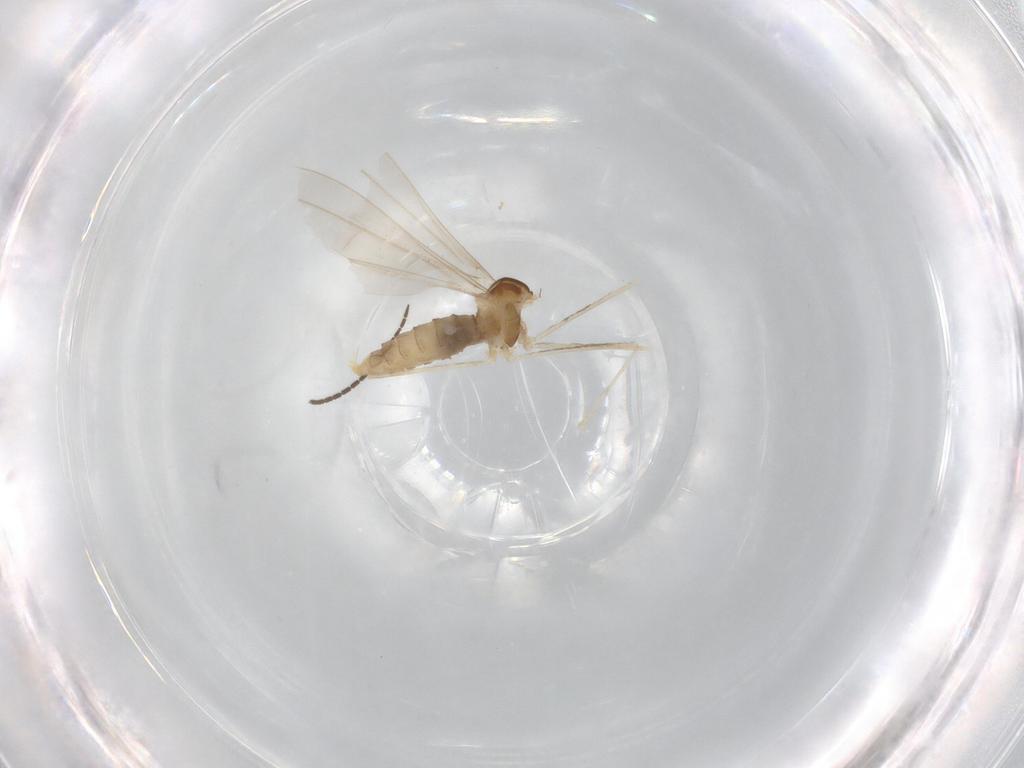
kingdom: Animalia
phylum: Arthropoda
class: Insecta
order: Diptera
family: Cecidomyiidae
